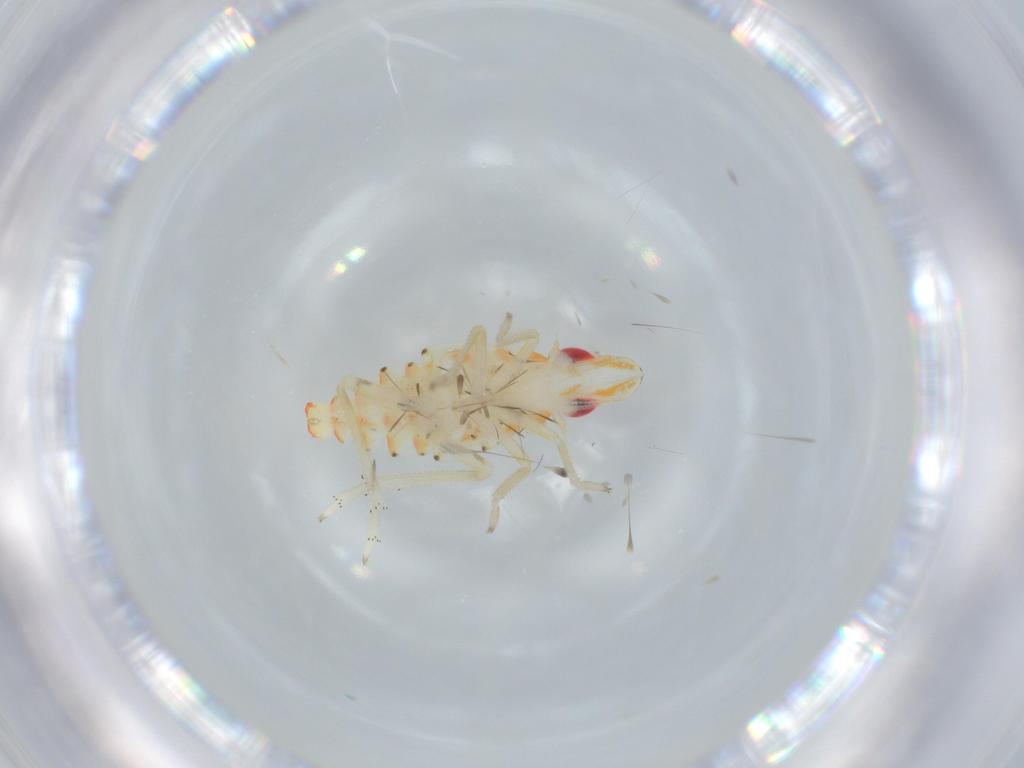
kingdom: Animalia
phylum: Arthropoda
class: Insecta
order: Hemiptera
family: Tropiduchidae
